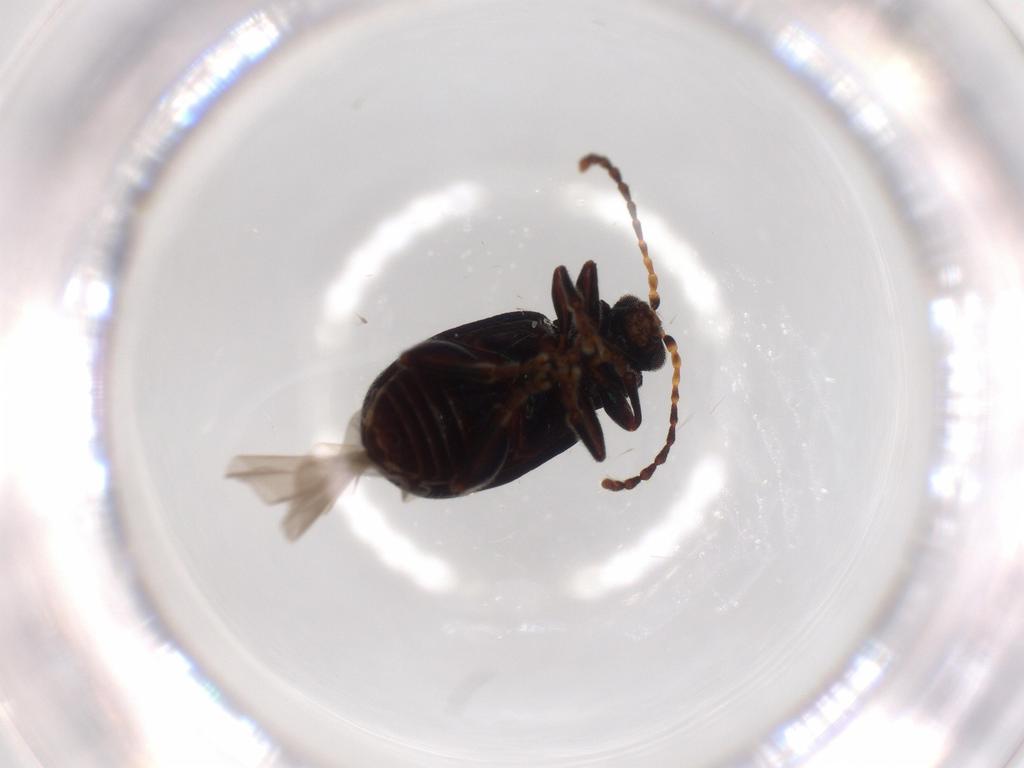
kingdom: Animalia
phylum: Arthropoda
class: Insecta
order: Coleoptera
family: Chrysomelidae
